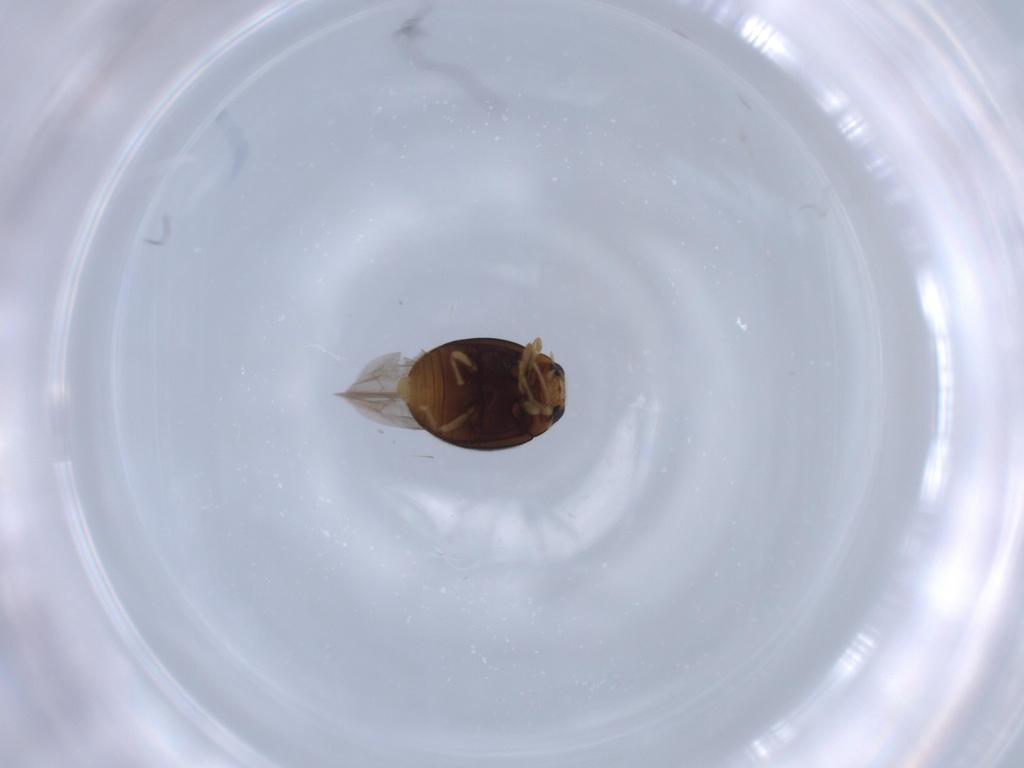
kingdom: Animalia
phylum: Arthropoda
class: Insecta
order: Coleoptera
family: Coccinellidae
